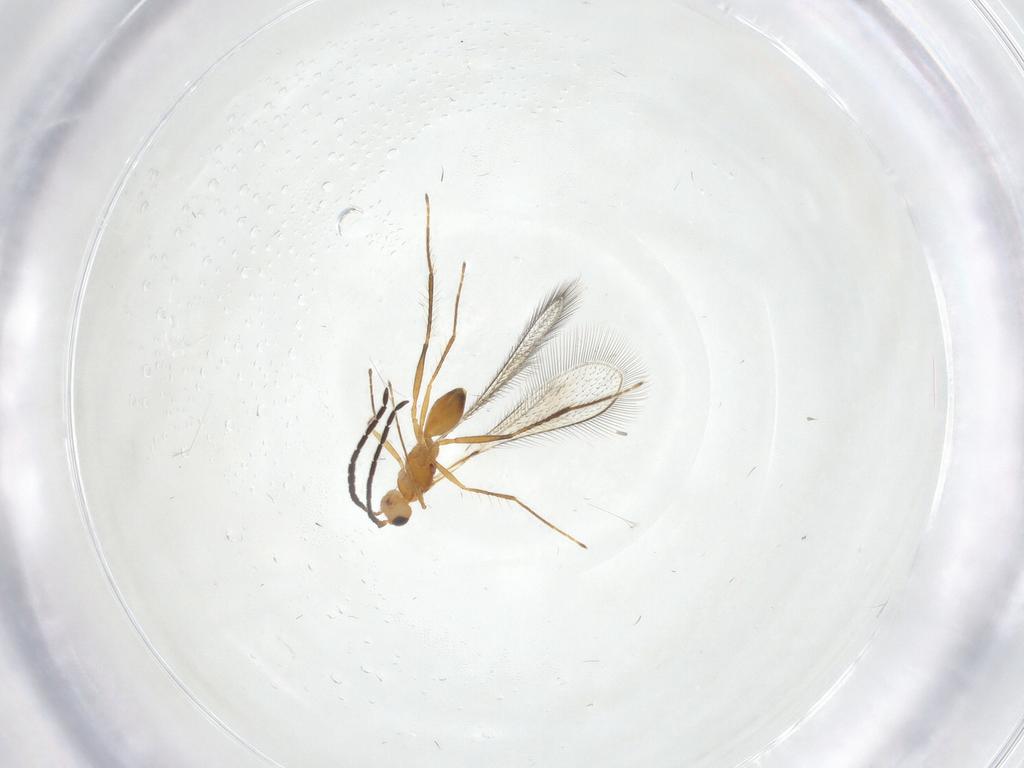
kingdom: Animalia
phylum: Arthropoda
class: Insecta
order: Hymenoptera
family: Mymaridae
